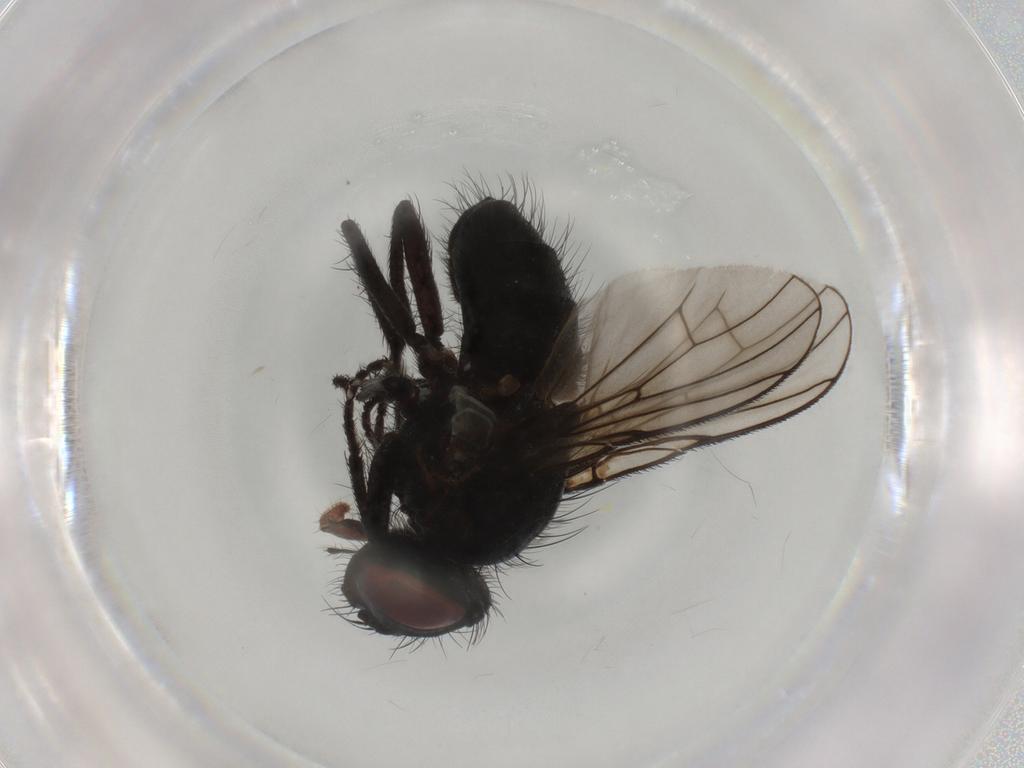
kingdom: Animalia
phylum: Arthropoda
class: Insecta
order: Diptera
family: Muscidae
